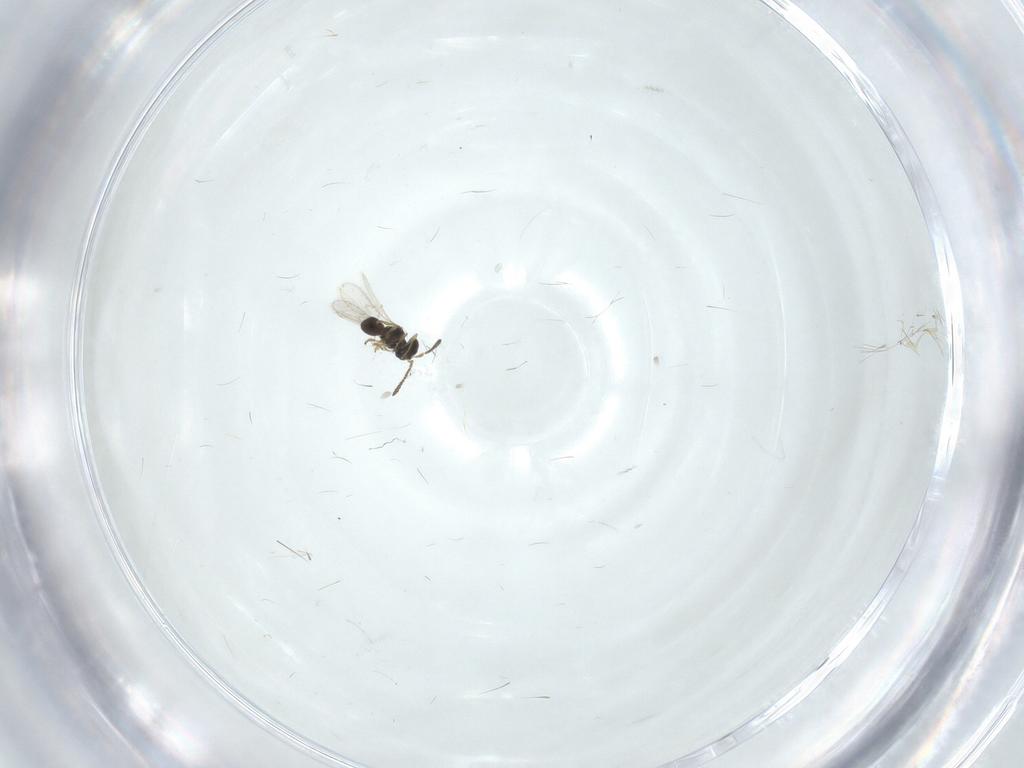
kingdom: Animalia
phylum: Arthropoda
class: Insecta
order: Hymenoptera
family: Scelionidae
